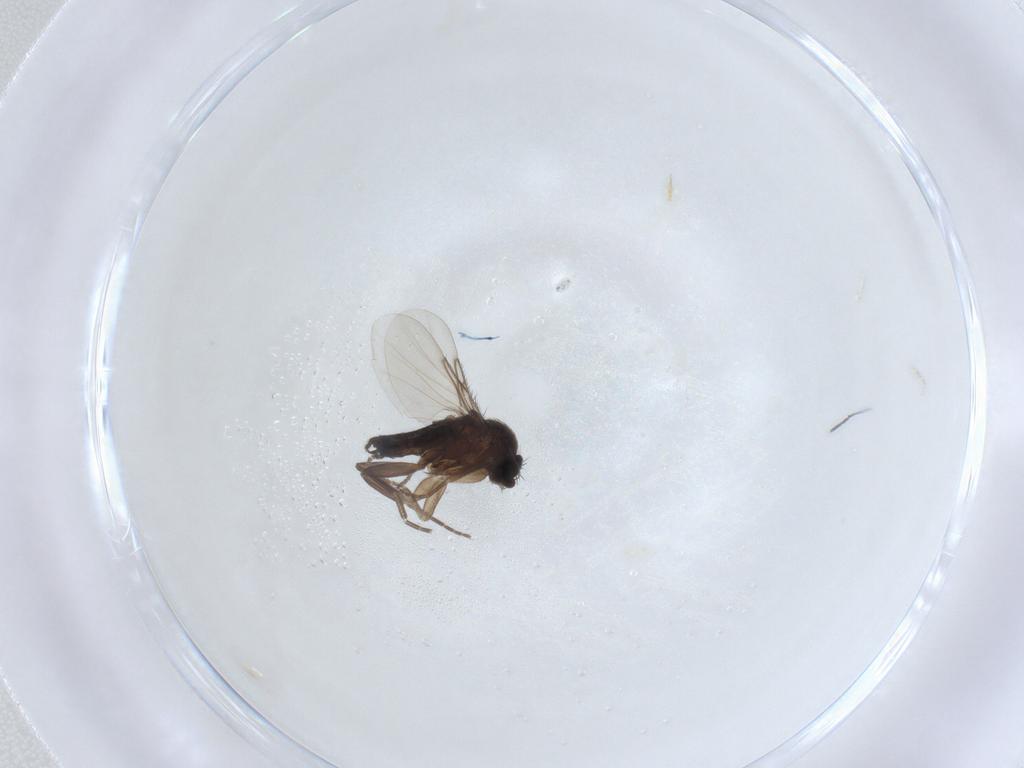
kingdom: Animalia
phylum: Arthropoda
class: Insecta
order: Diptera
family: Phoridae
